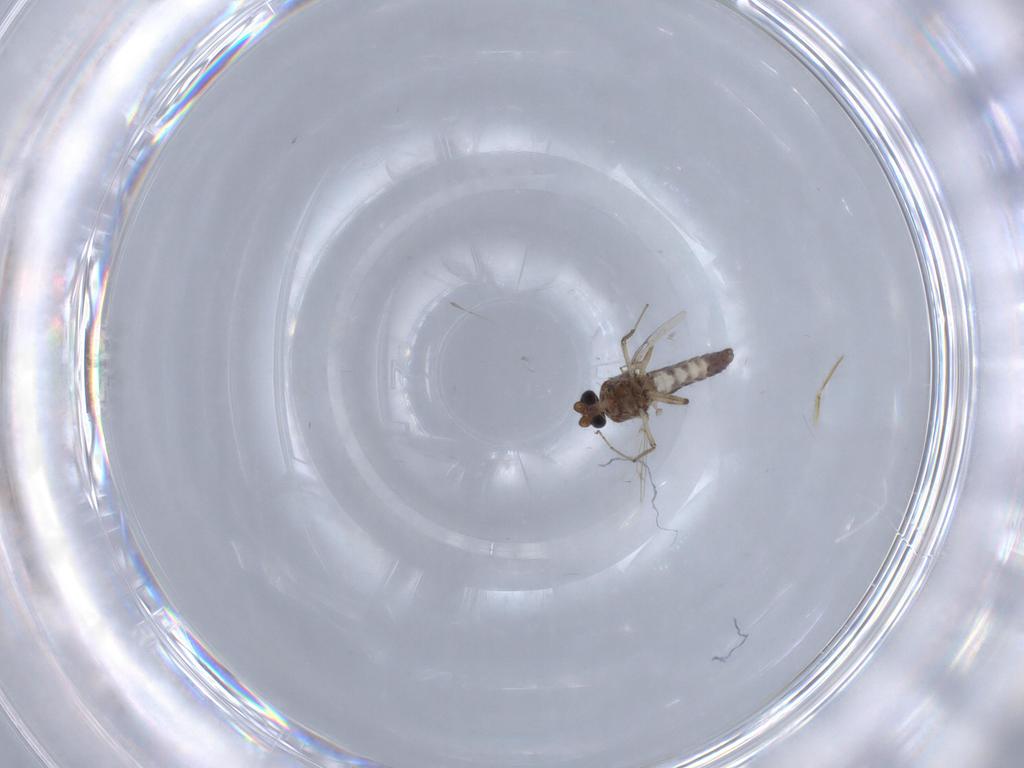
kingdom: Animalia
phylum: Arthropoda
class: Insecta
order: Diptera
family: Ceratopogonidae
